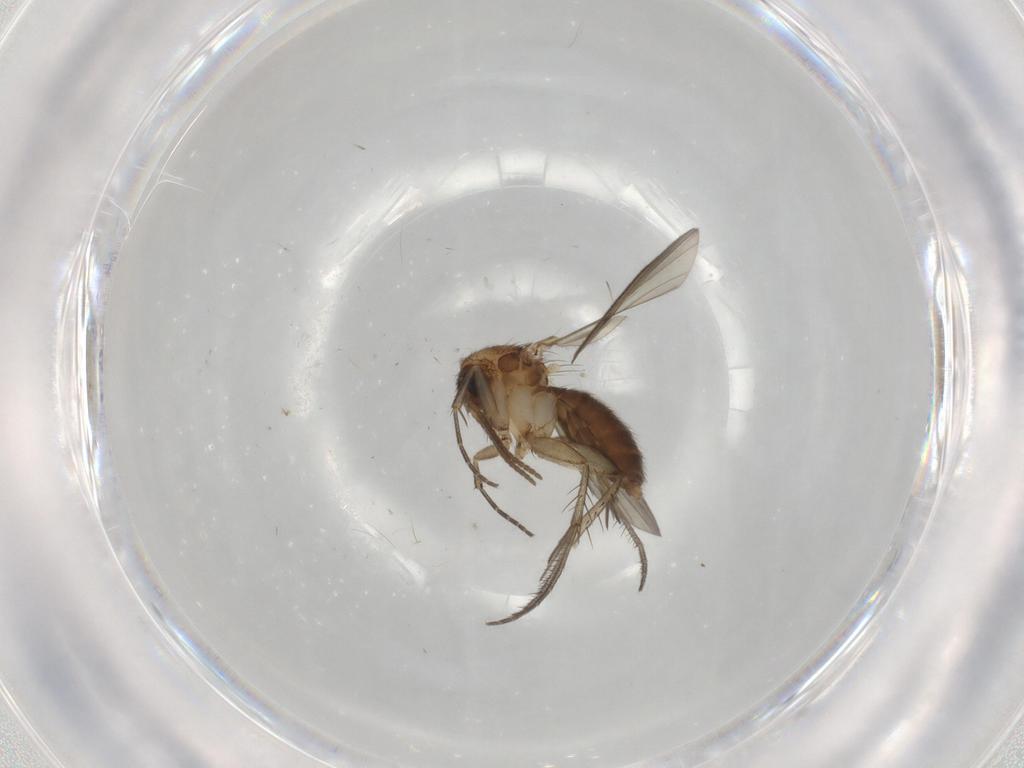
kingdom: Animalia
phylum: Arthropoda
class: Insecta
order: Diptera
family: Mycetophilidae
